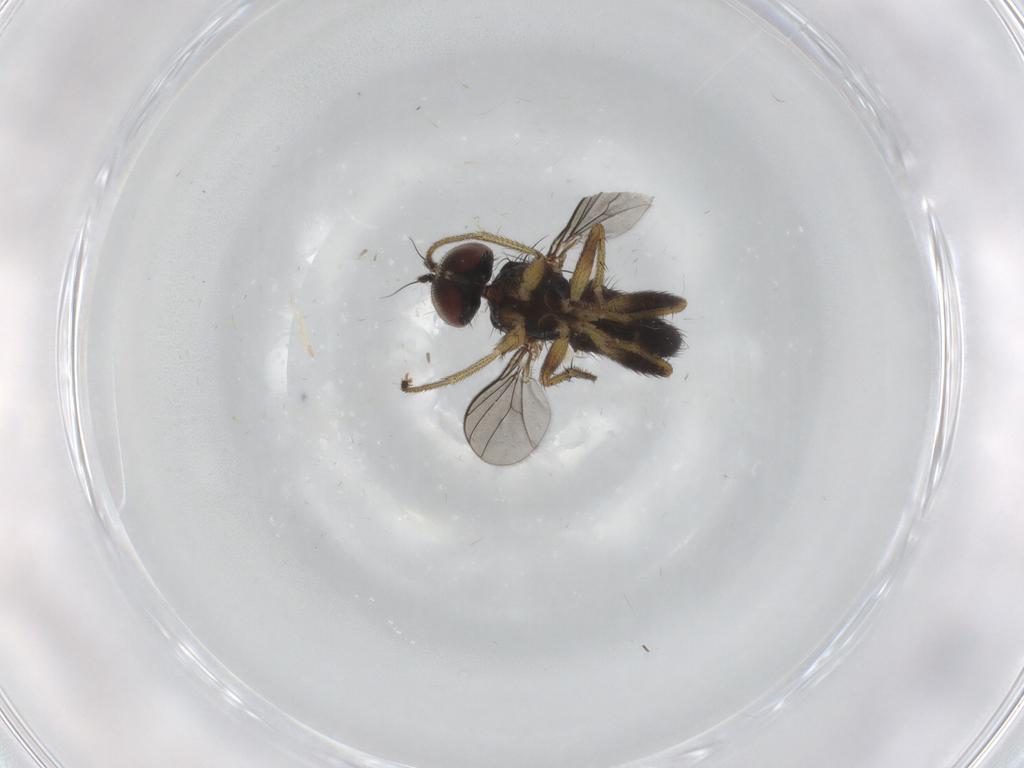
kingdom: Animalia
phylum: Arthropoda
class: Insecta
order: Diptera
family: Dolichopodidae
